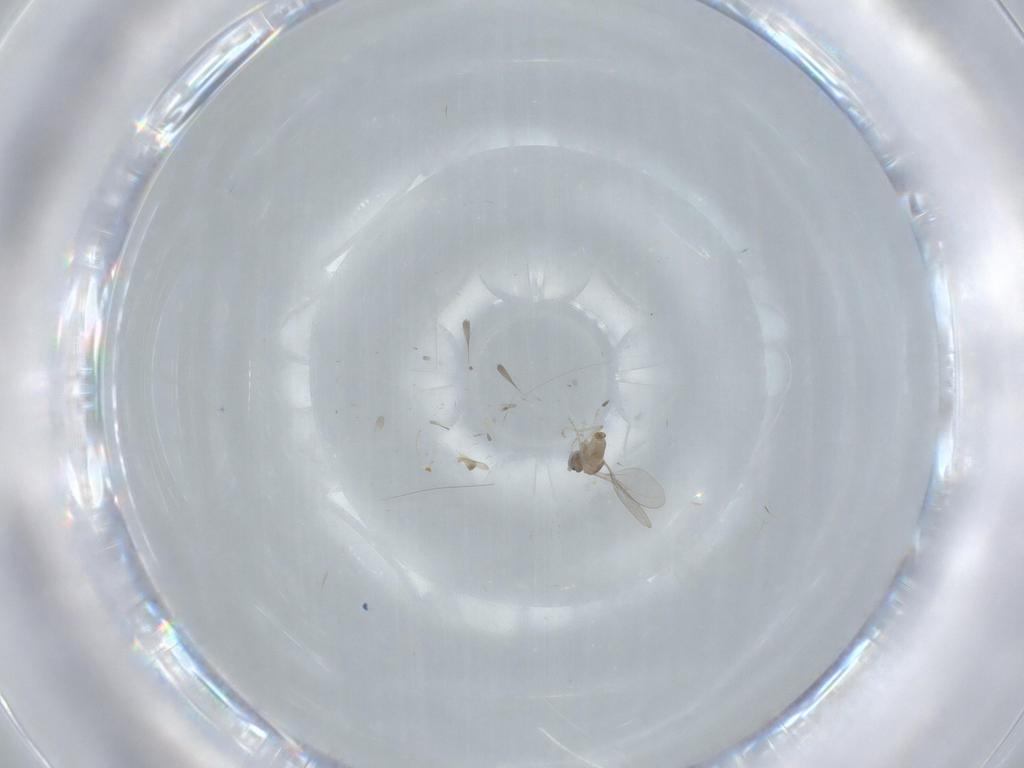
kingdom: Animalia
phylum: Arthropoda
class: Insecta
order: Diptera
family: Cecidomyiidae
